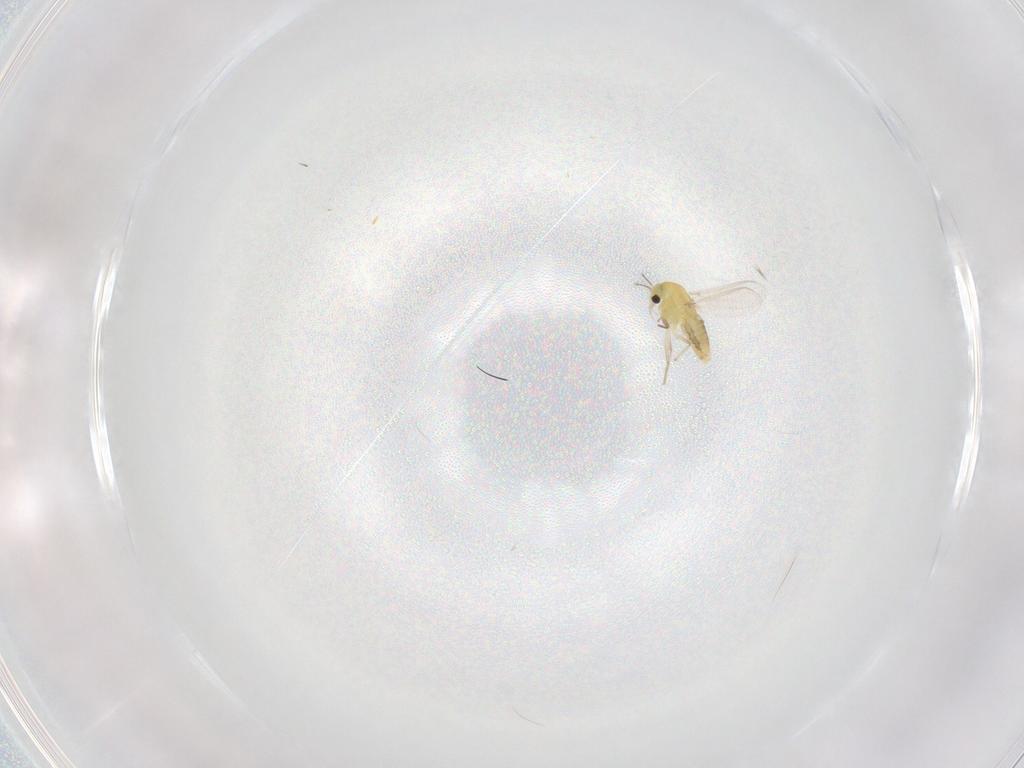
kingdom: Animalia
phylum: Arthropoda
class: Insecta
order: Diptera
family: Chironomidae
